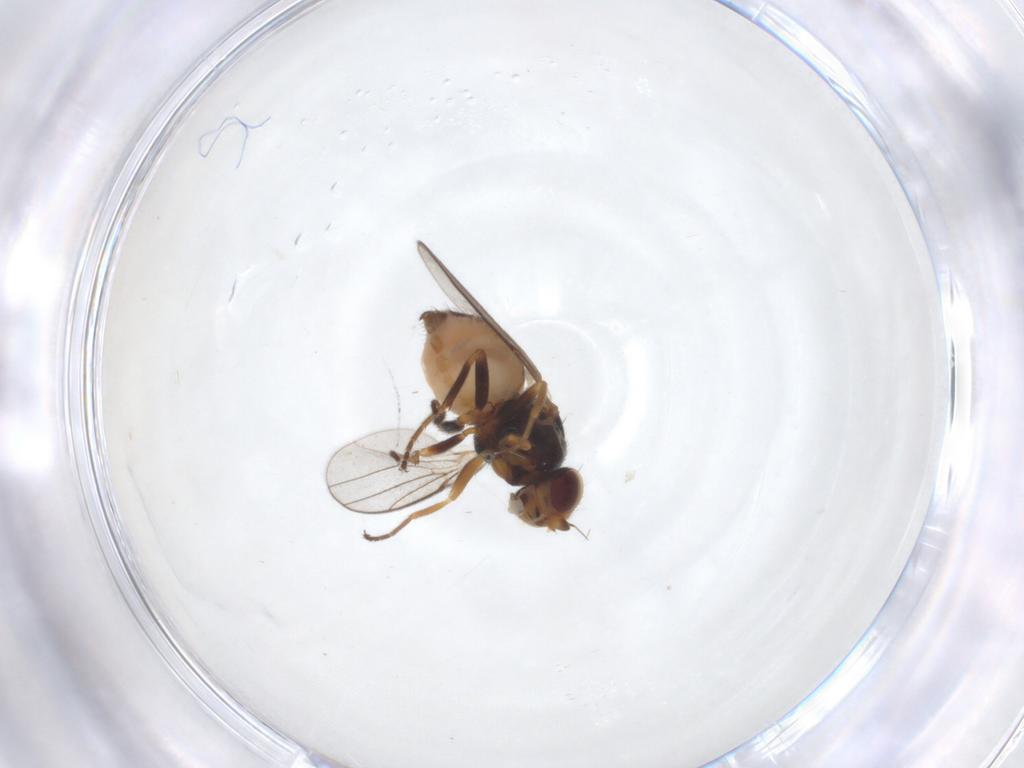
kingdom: Animalia
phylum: Arthropoda
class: Insecta
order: Diptera
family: Chloropidae
